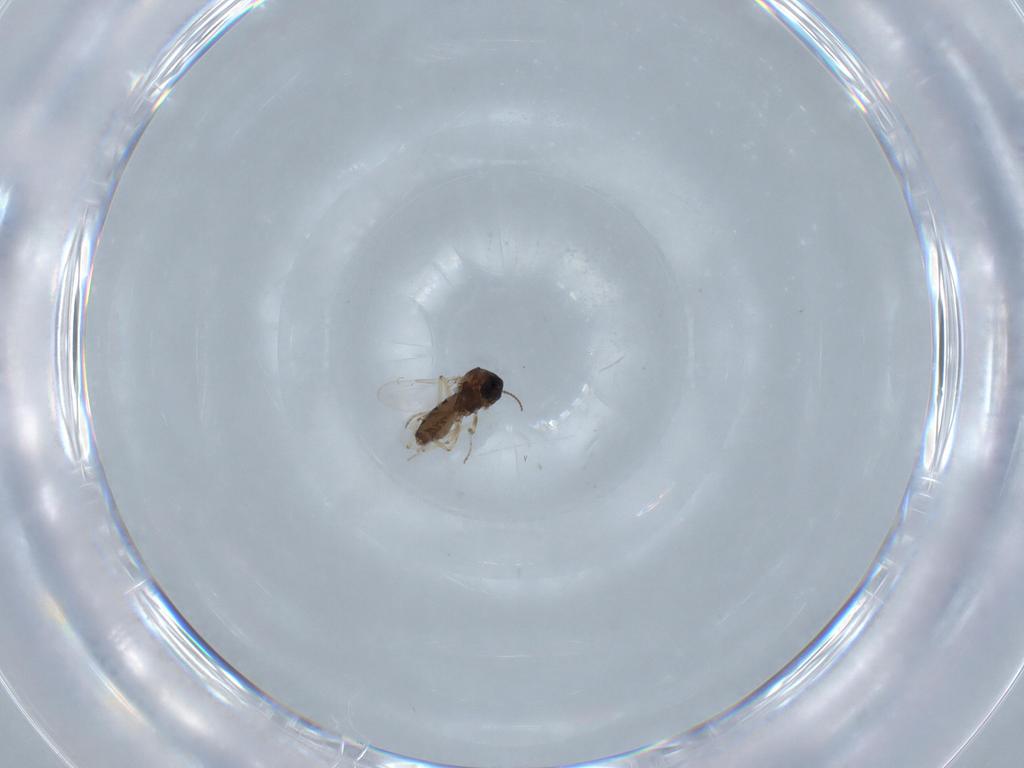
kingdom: Animalia
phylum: Arthropoda
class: Insecta
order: Diptera
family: Ceratopogonidae
